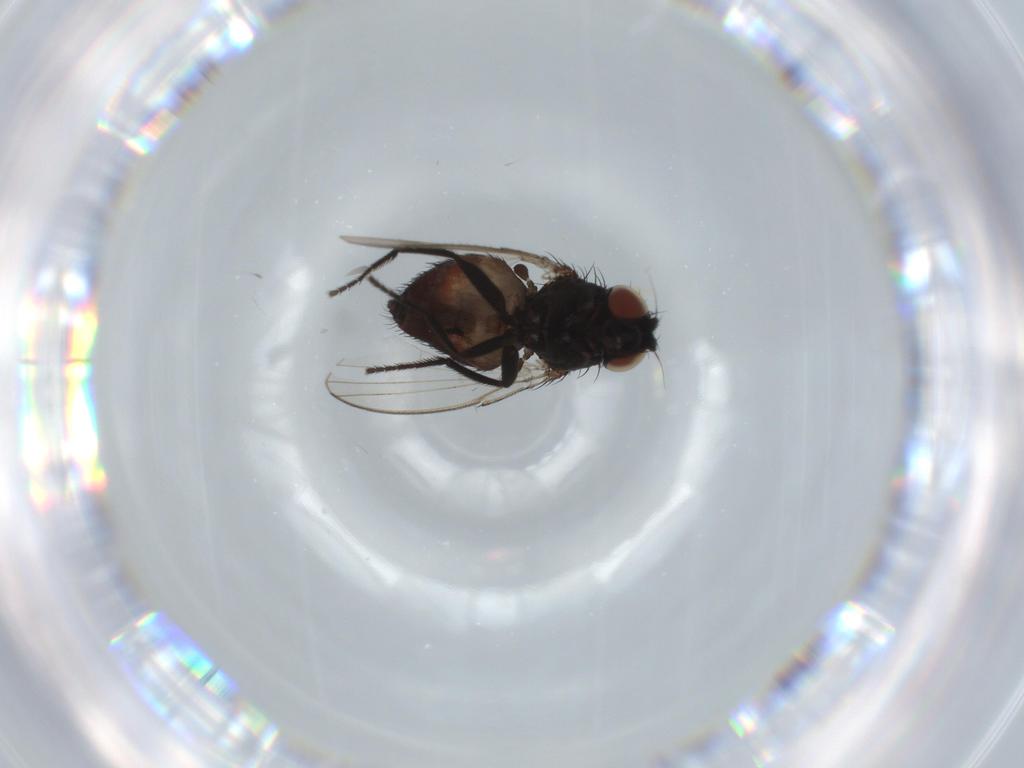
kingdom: Animalia
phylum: Arthropoda
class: Insecta
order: Diptera
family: Milichiidae
